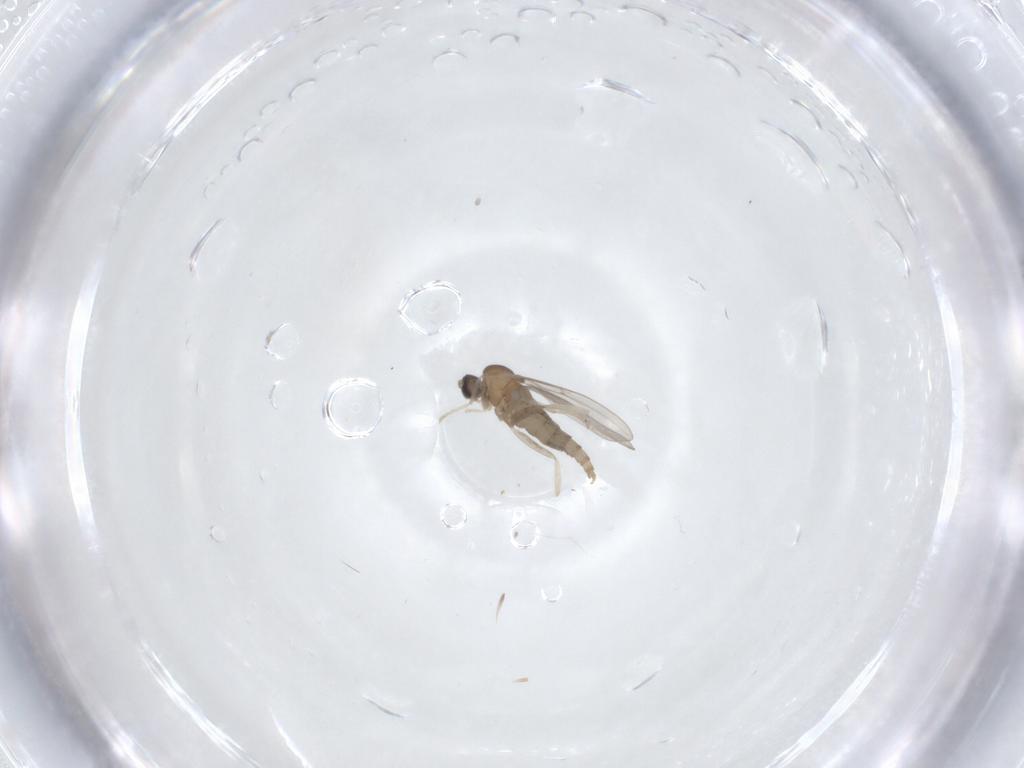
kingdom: Animalia
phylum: Arthropoda
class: Insecta
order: Diptera
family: Cecidomyiidae
